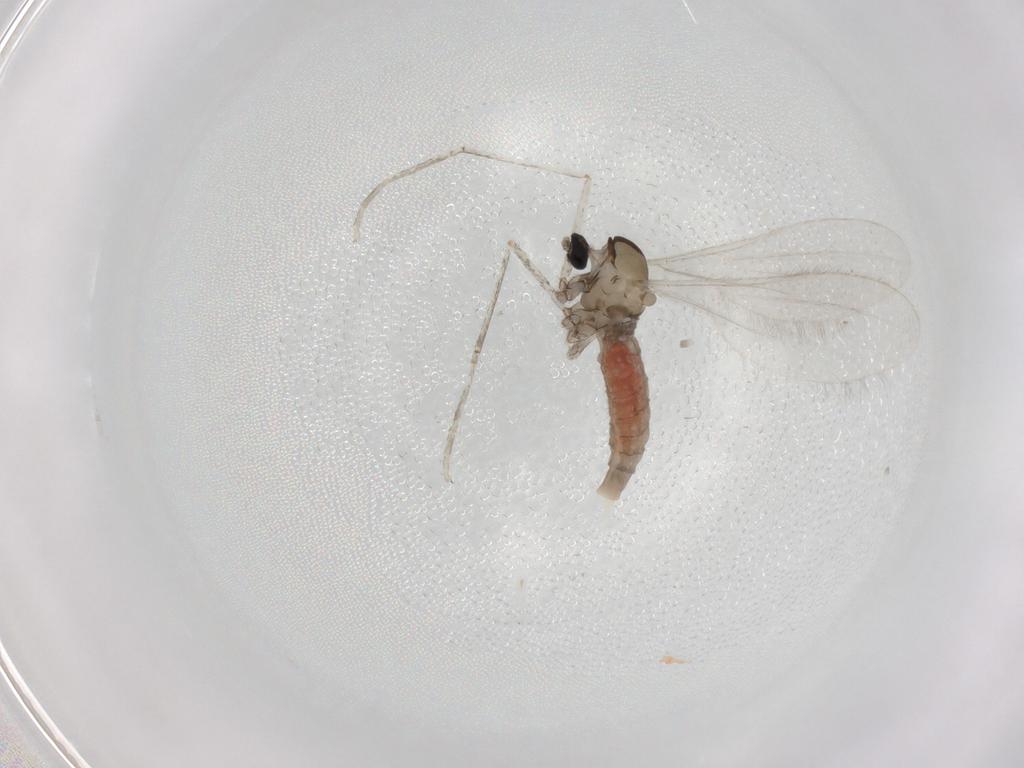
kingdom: Animalia
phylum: Arthropoda
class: Insecta
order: Diptera
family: Cecidomyiidae
